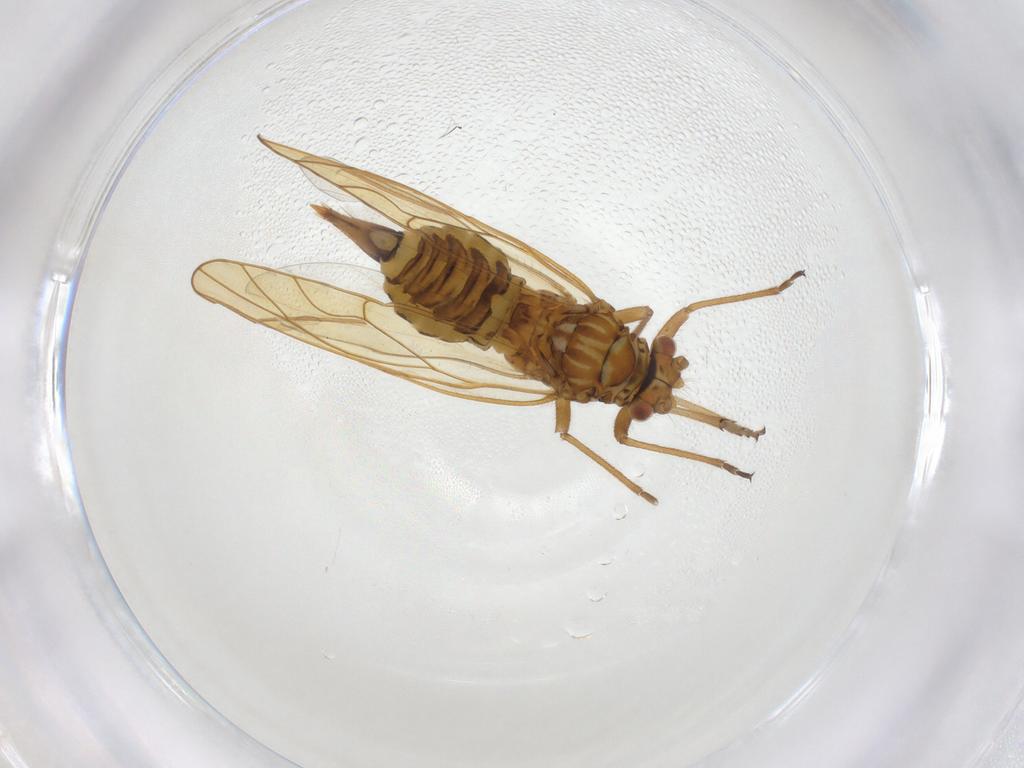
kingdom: Animalia
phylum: Arthropoda
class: Insecta
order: Hemiptera
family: Psyllidae
